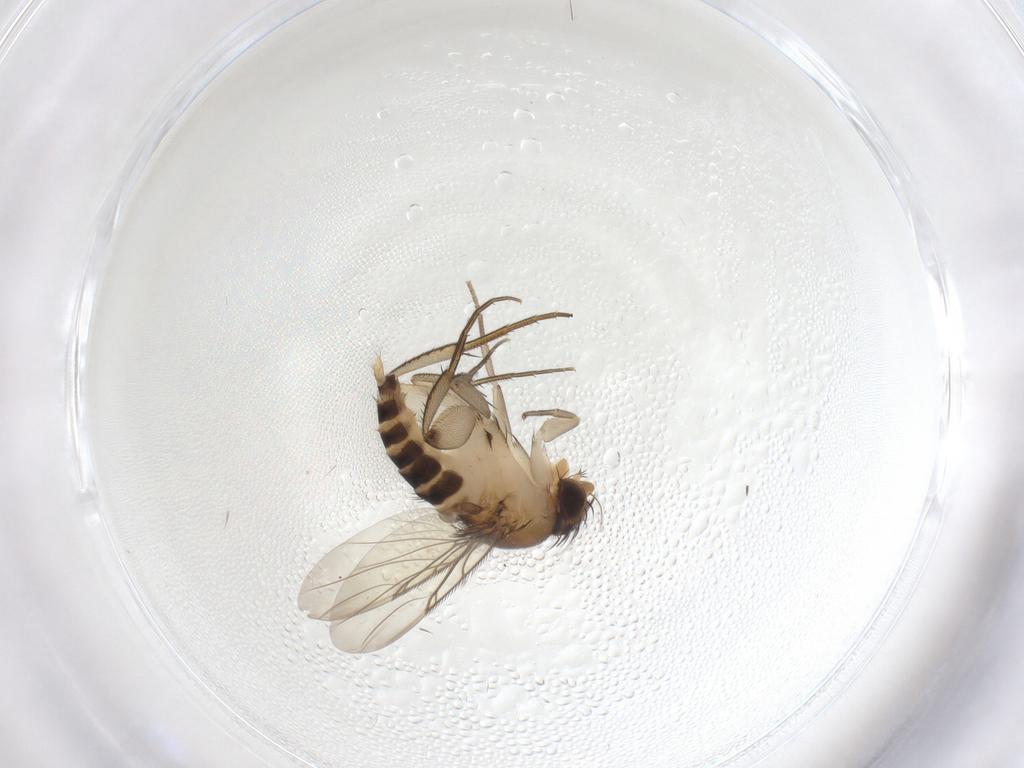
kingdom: Animalia
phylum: Arthropoda
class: Insecta
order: Diptera
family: Phoridae
